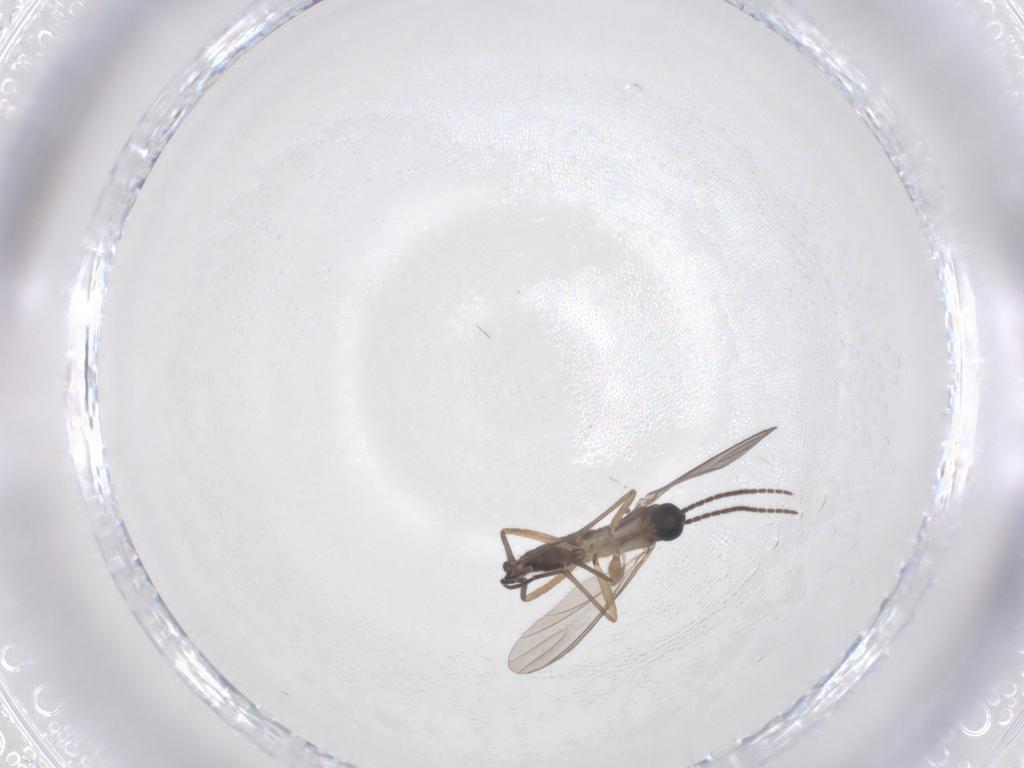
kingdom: Animalia
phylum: Arthropoda
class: Insecta
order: Diptera
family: Sciaridae
